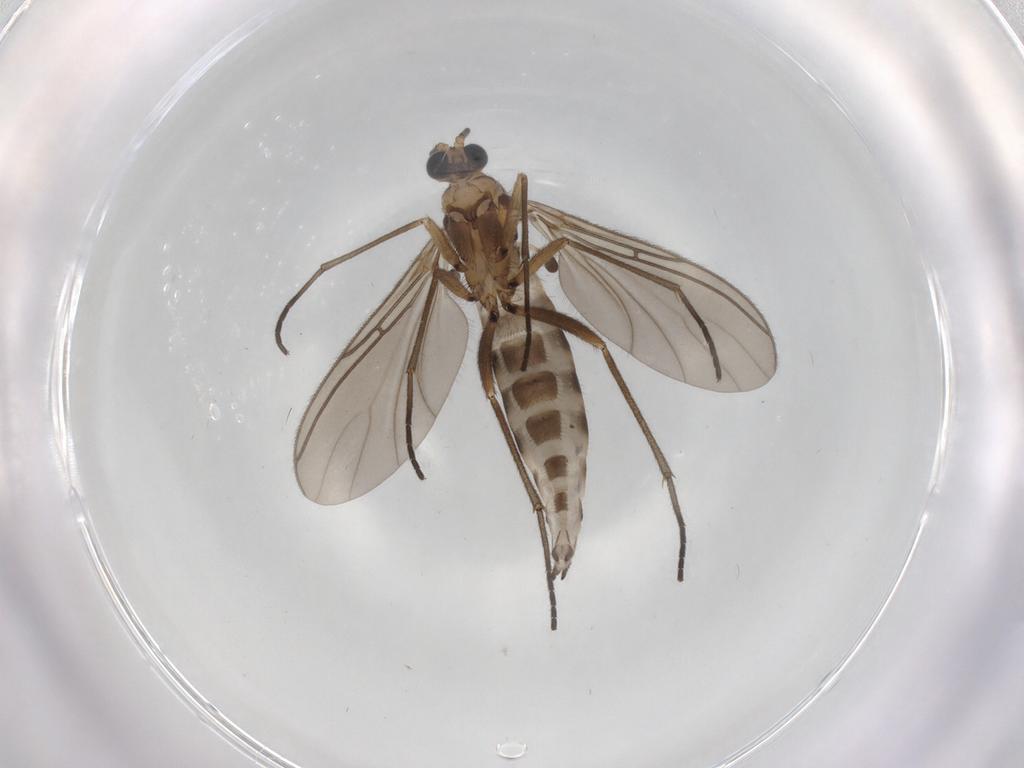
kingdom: Animalia
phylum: Arthropoda
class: Insecta
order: Diptera
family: Sciaridae
